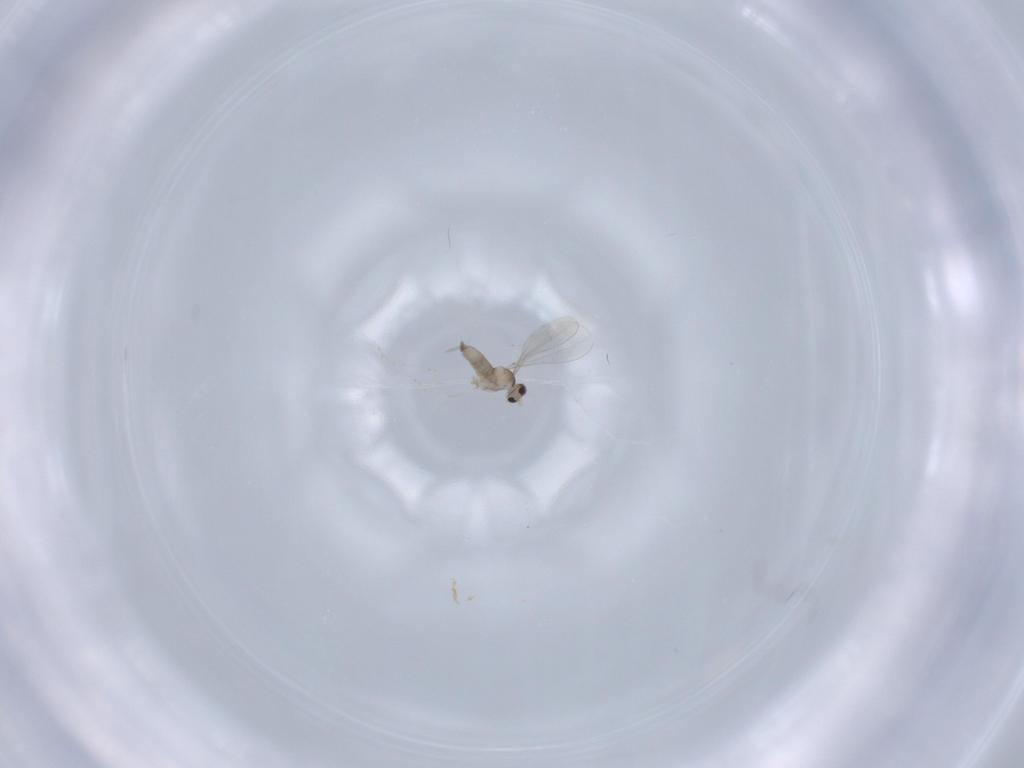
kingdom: Animalia
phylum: Arthropoda
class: Insecta
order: Diptera
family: Cecidomyiidae
